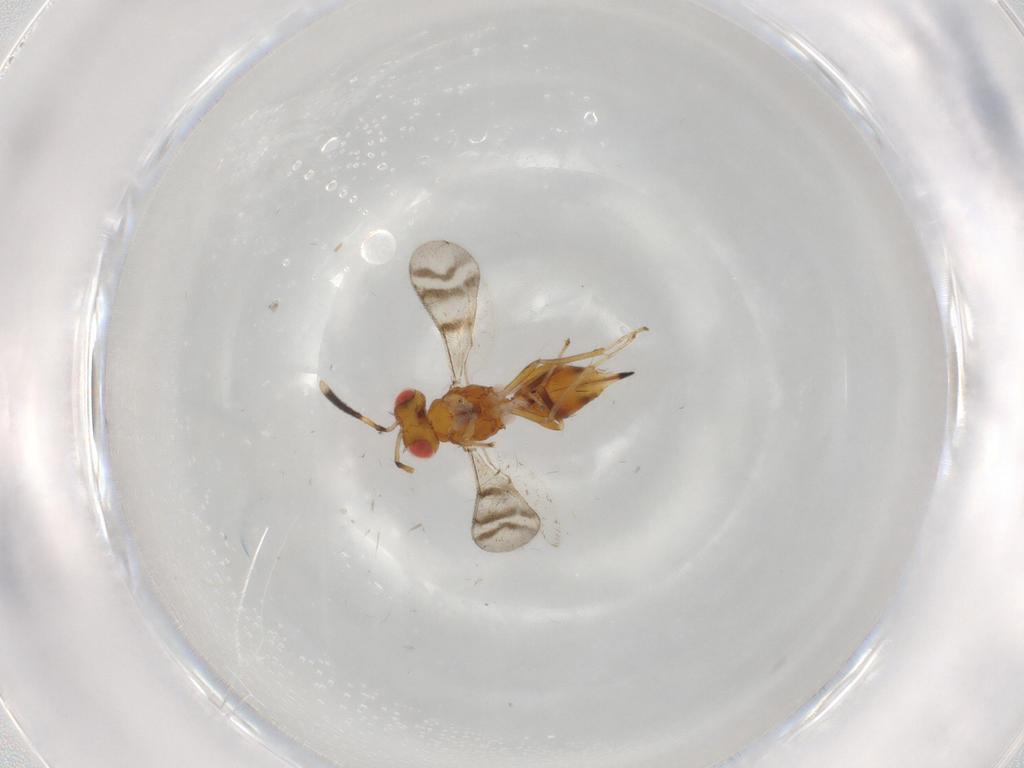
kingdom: Animalia
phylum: Arthropoda
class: Insecta
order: Hymenoptera
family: Diparidae
